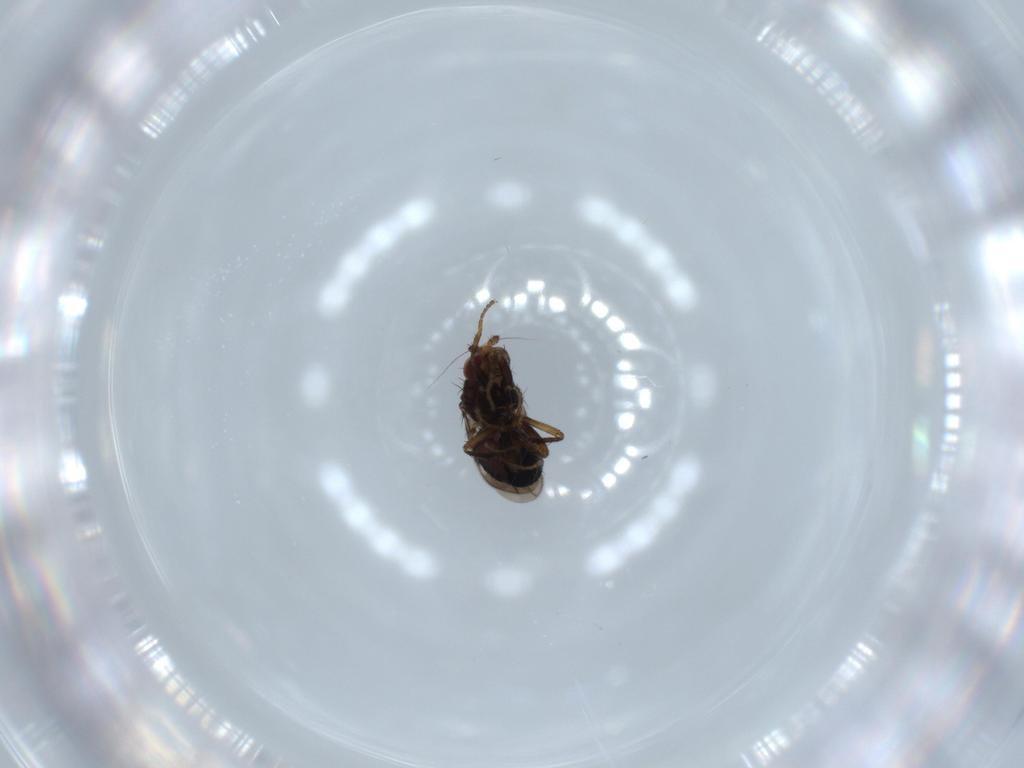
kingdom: Animalia
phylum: Arthropoda
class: Insecta
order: Diptera
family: Sphaeroceridae
